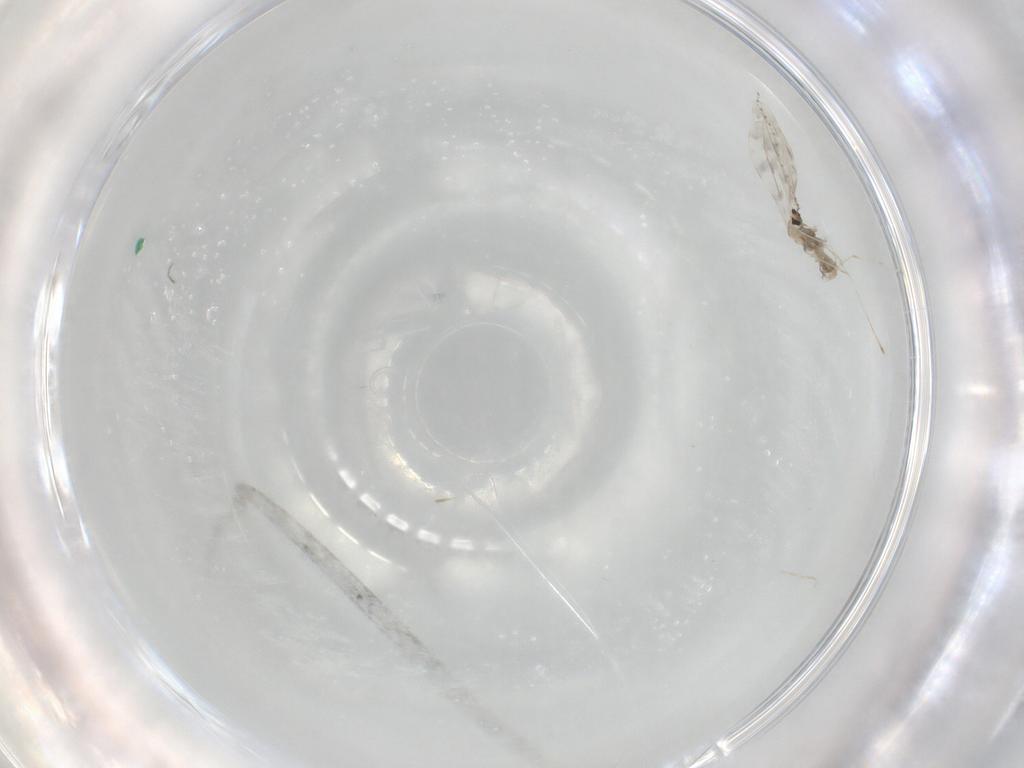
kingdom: Animalia
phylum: Arthropoda
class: Insecta
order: Diptera
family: Cecidomyiidae
